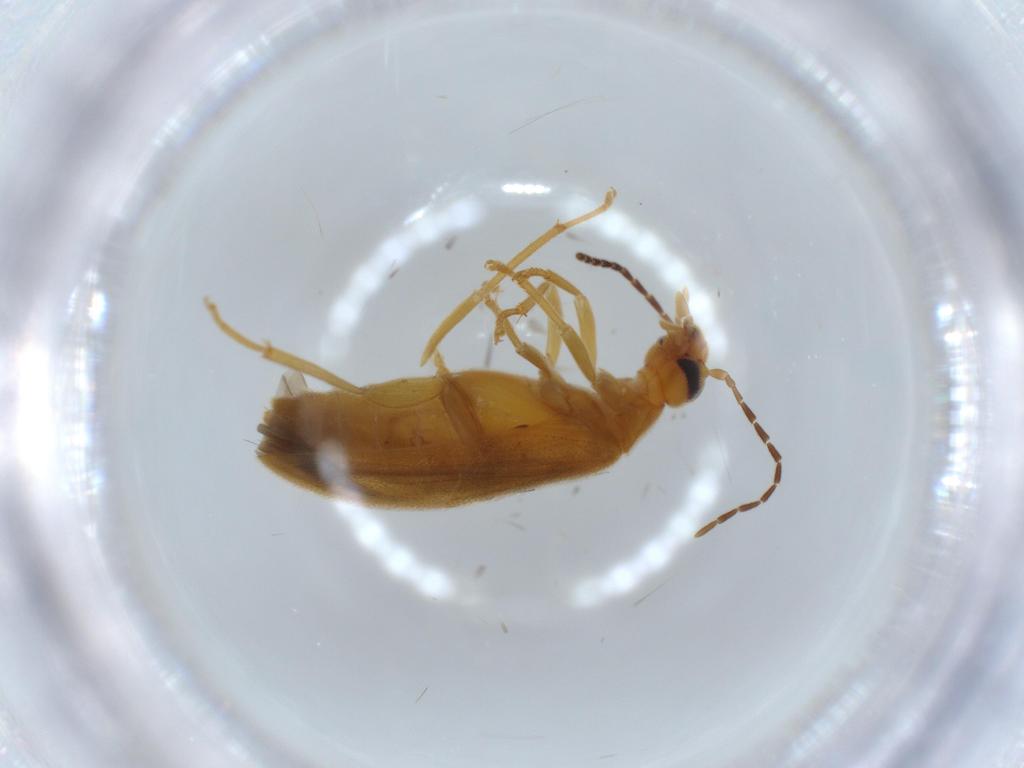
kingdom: Animalia
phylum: Arthropoda
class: Insecta
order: Coleoptera
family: Scraptiidae
